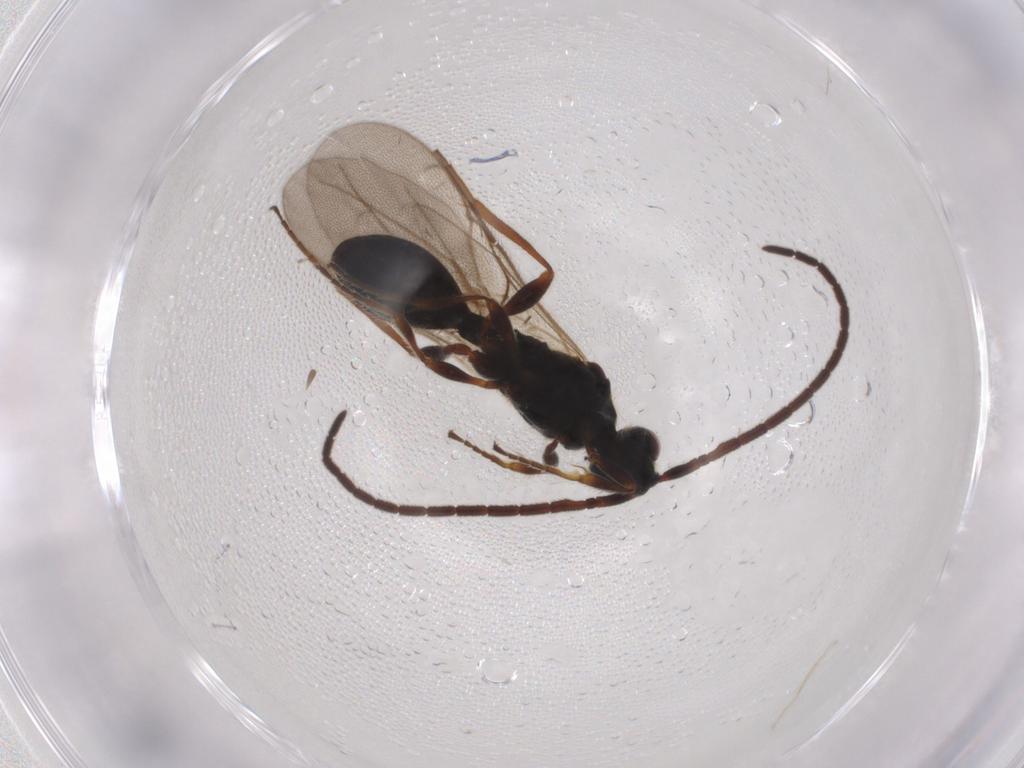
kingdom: Animalia
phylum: Arthropoda
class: Insecta
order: Hymenoptera
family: Diapriidae
